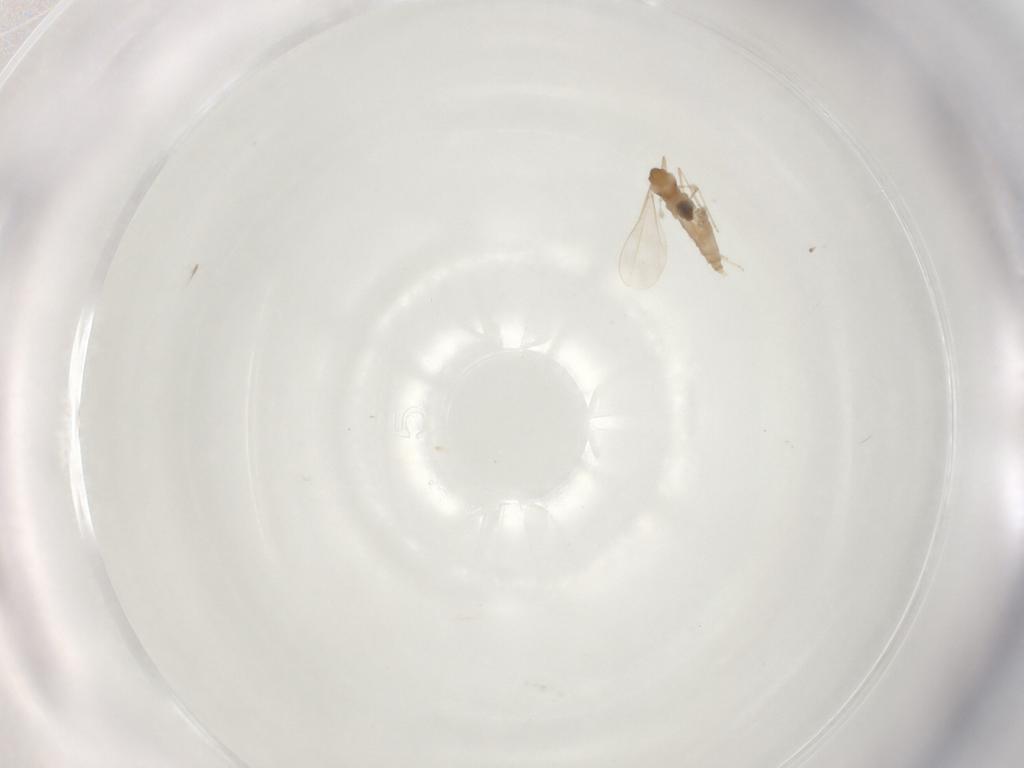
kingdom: Animalia
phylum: Arthropoda
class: Insecta
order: Diptera
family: Cecidomyiidae
